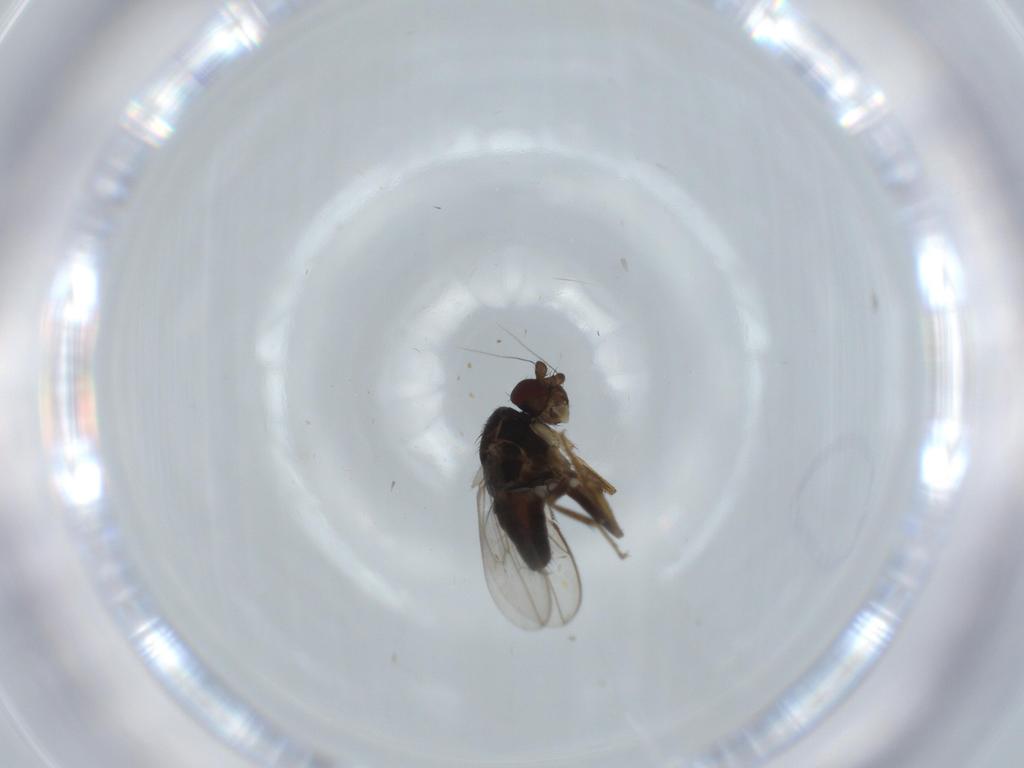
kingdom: Animalia
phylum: Arthropoda
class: Insecta
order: Diptera
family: Sphaeroceridae
